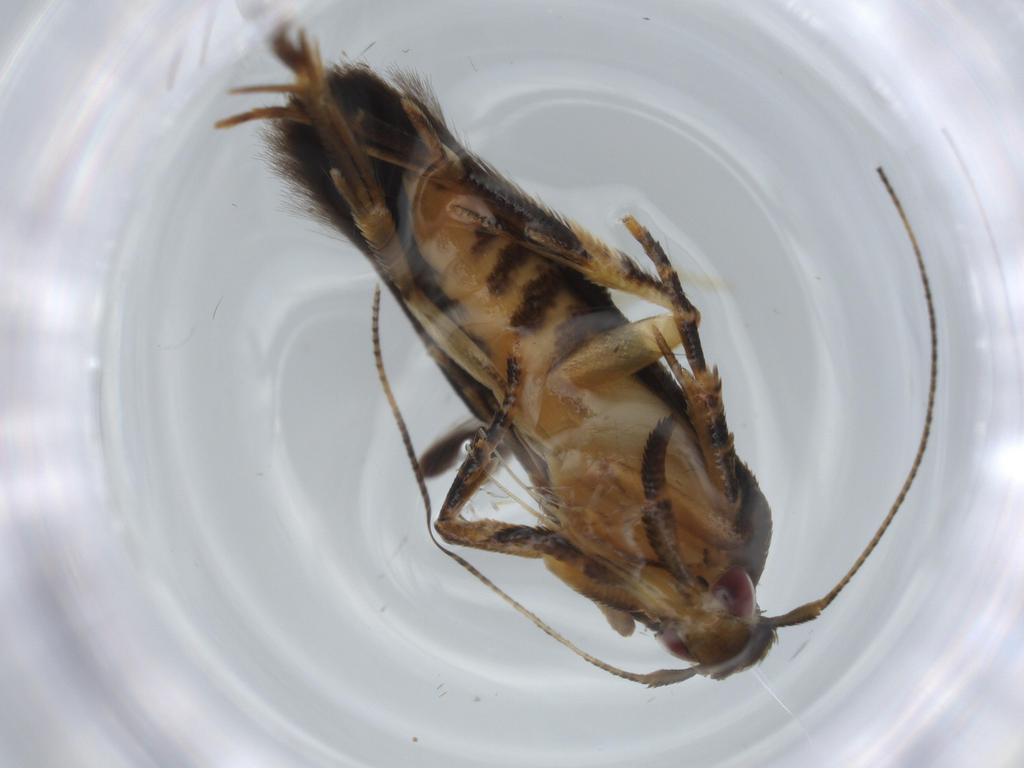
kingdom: Animalia
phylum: Arthropoda
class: Insecta
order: Lepidoptera
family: Cosmopterigidae
